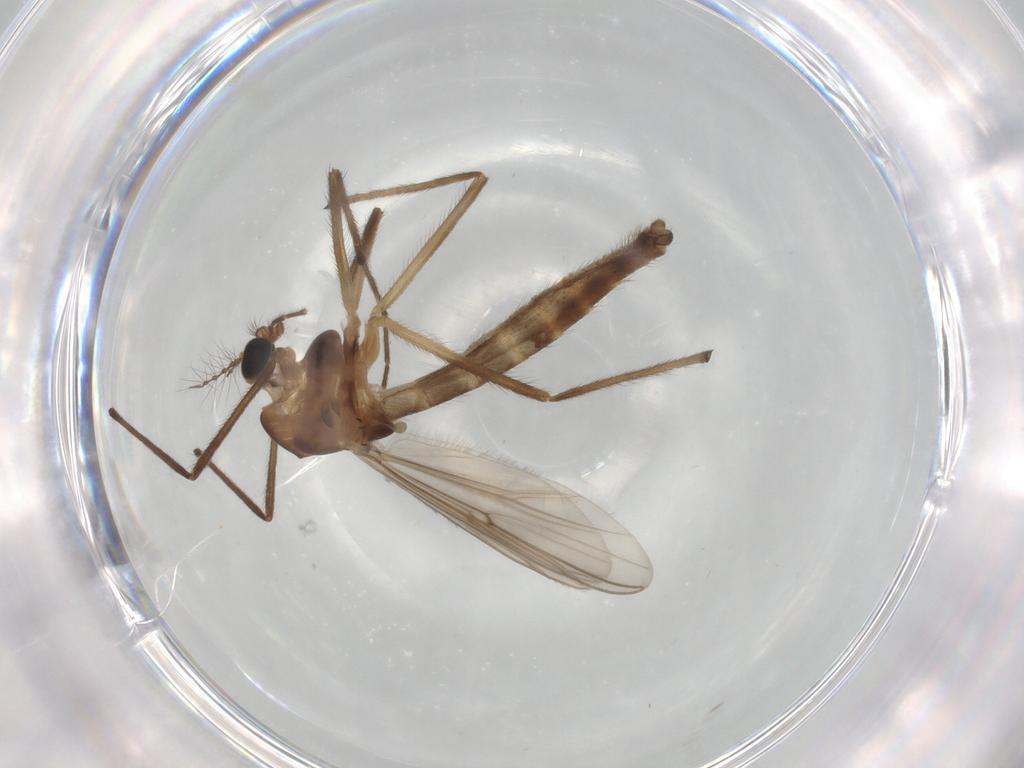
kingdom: Animalia
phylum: Arthropoda
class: Insecta
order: Diptera
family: Chironomidae
